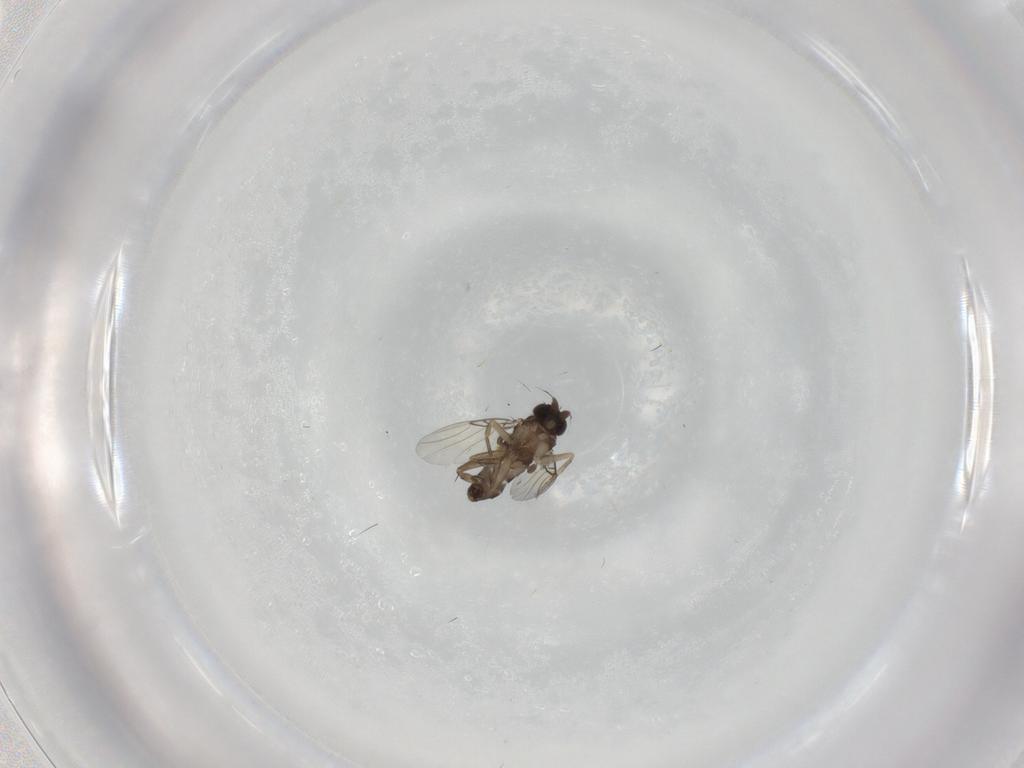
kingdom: Animalia
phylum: Arthropoda
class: Insecta
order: Diptera
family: Phoridae
